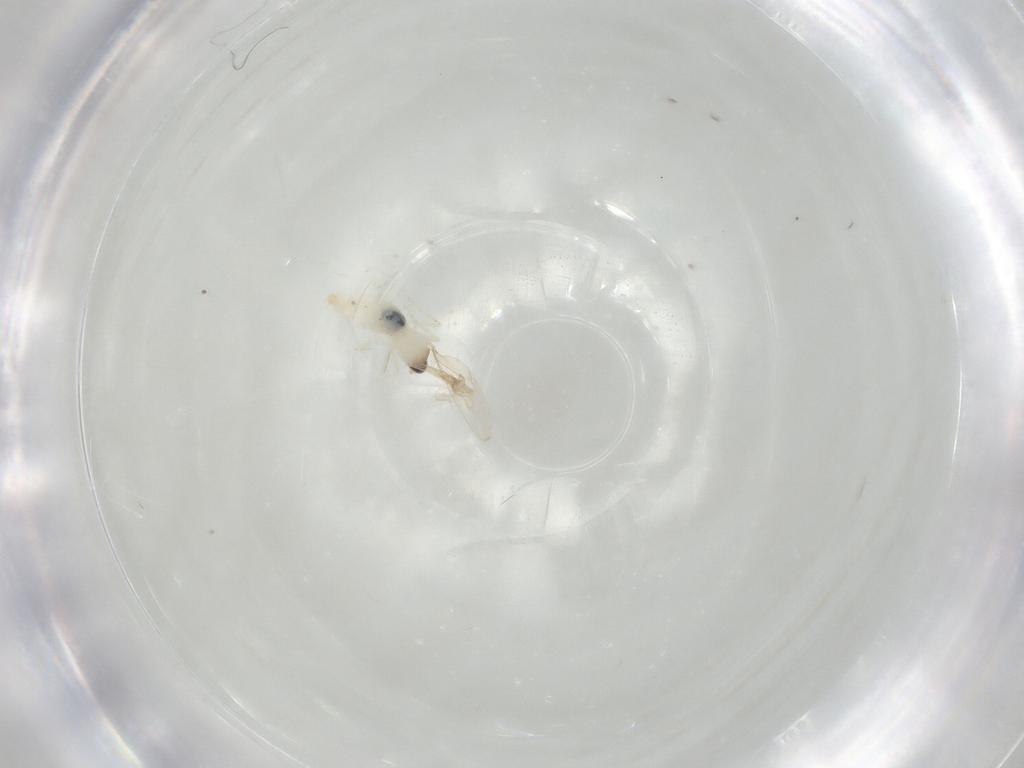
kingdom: Animalia
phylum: Arthropoda
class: Insecta
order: Diptera
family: Cecidomyiidae
